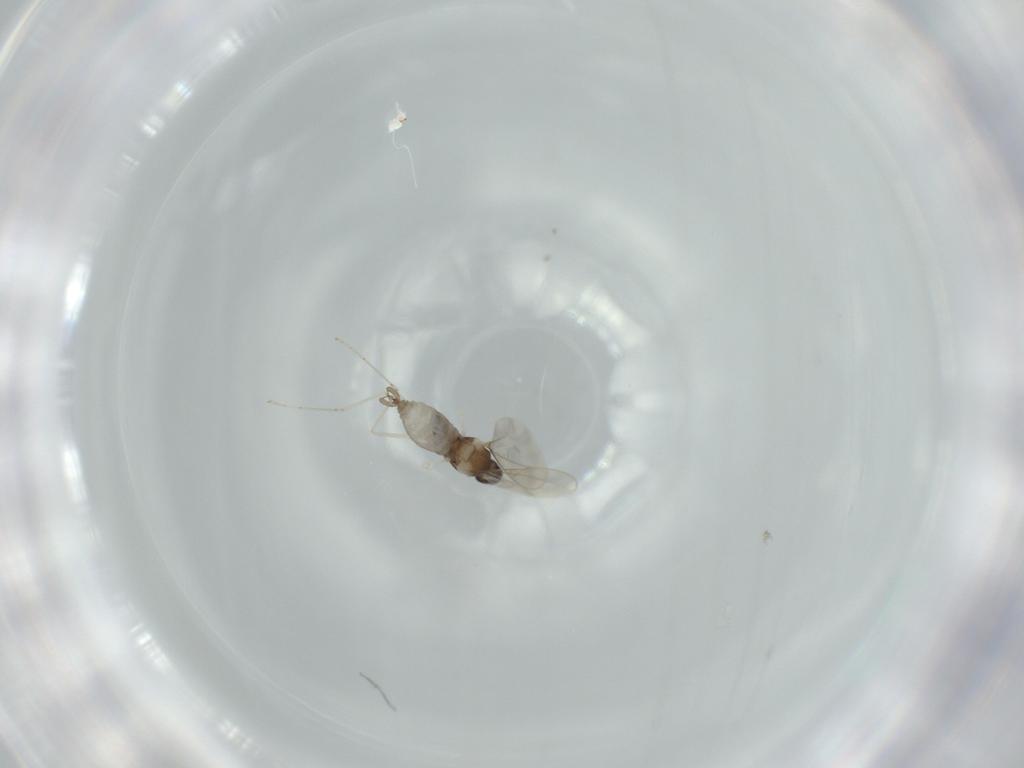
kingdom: Animalia
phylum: Arthropoda
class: Insecta
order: Diptera
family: Cecidomyiidae
